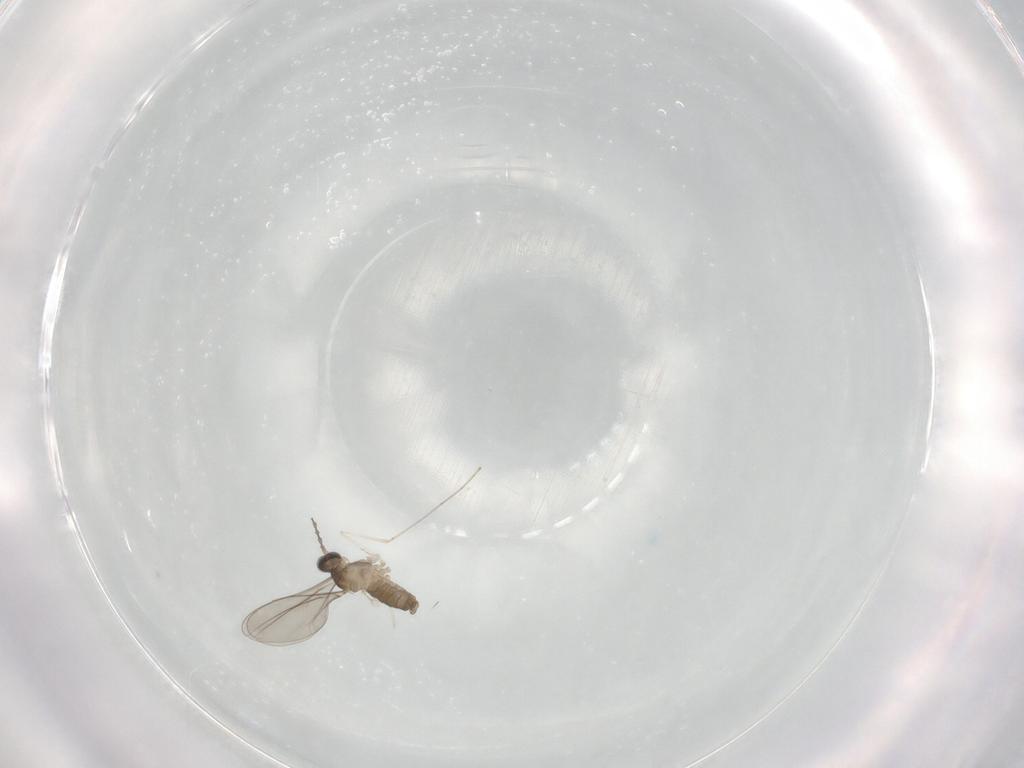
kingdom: Animalia
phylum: Arthropoda
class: Insecta
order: Diptera
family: Cecidomyiidae
